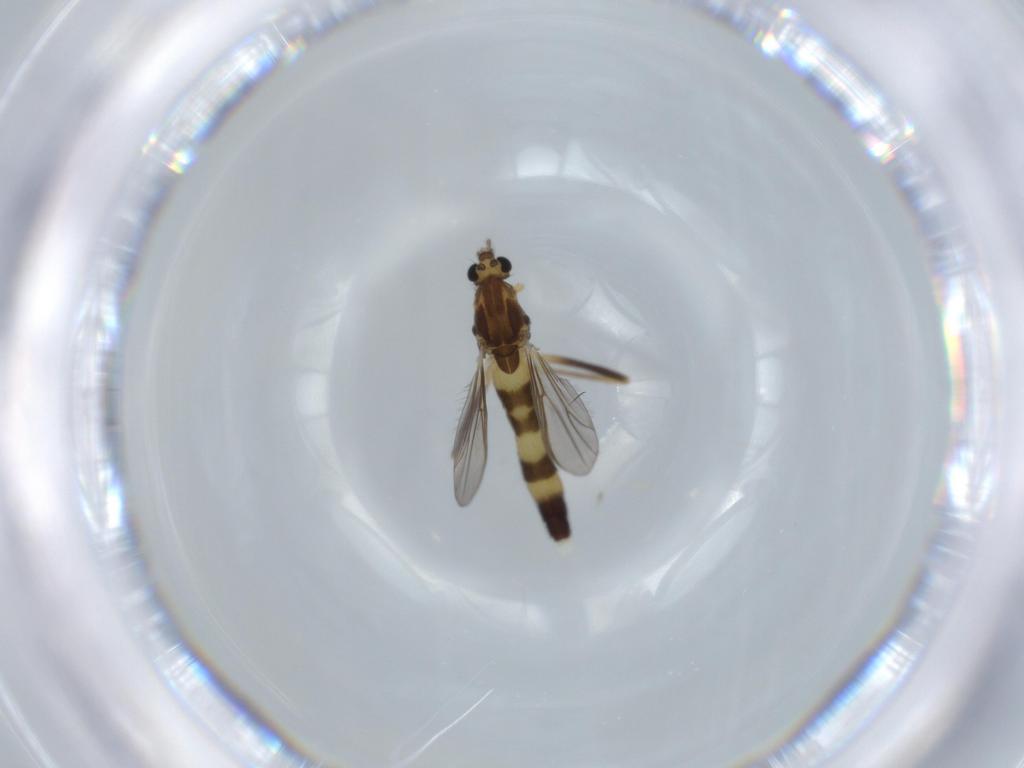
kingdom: Animalia
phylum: Arthropoda
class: Insecta
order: Diptera
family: Chironomidae
